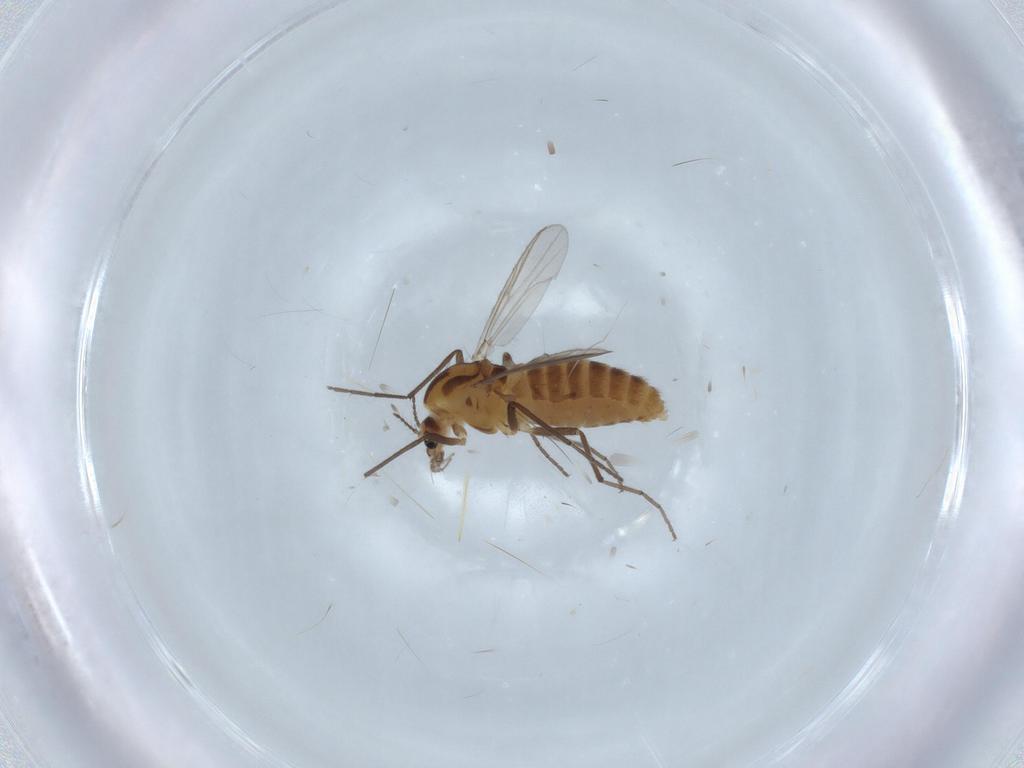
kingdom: Animalia
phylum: Arthropoda
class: Insecta
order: Diptera
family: Chironomidae
